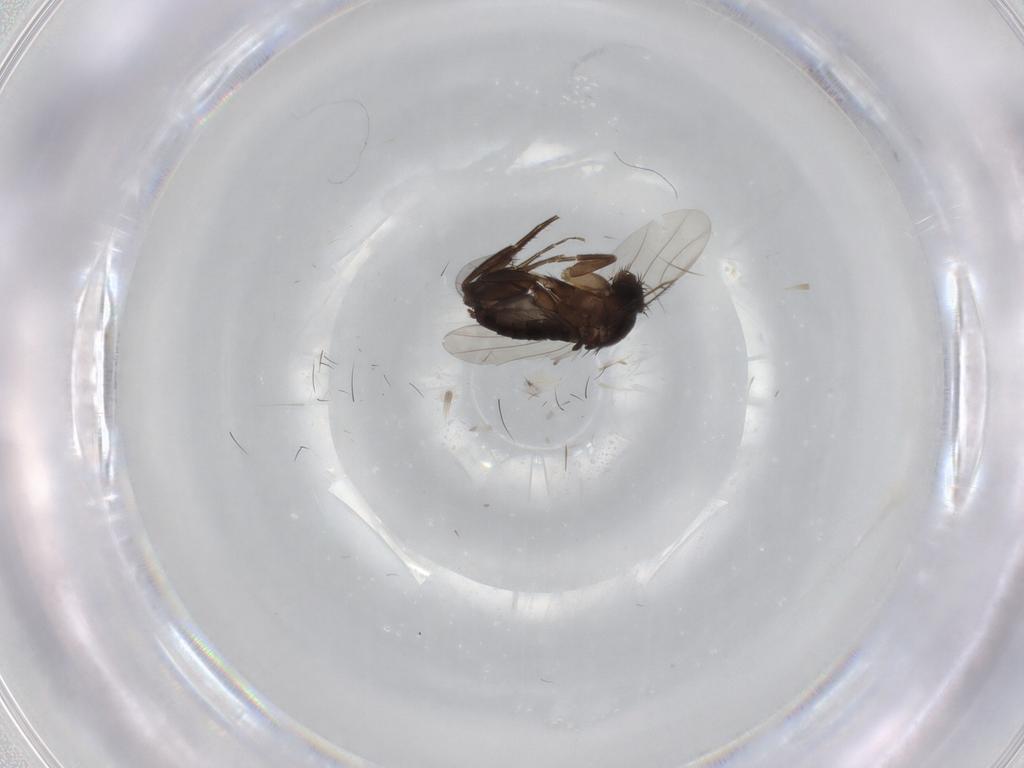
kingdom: Animalia
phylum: Arthropoda
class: Insecta
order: Diptera
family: Phoridae
